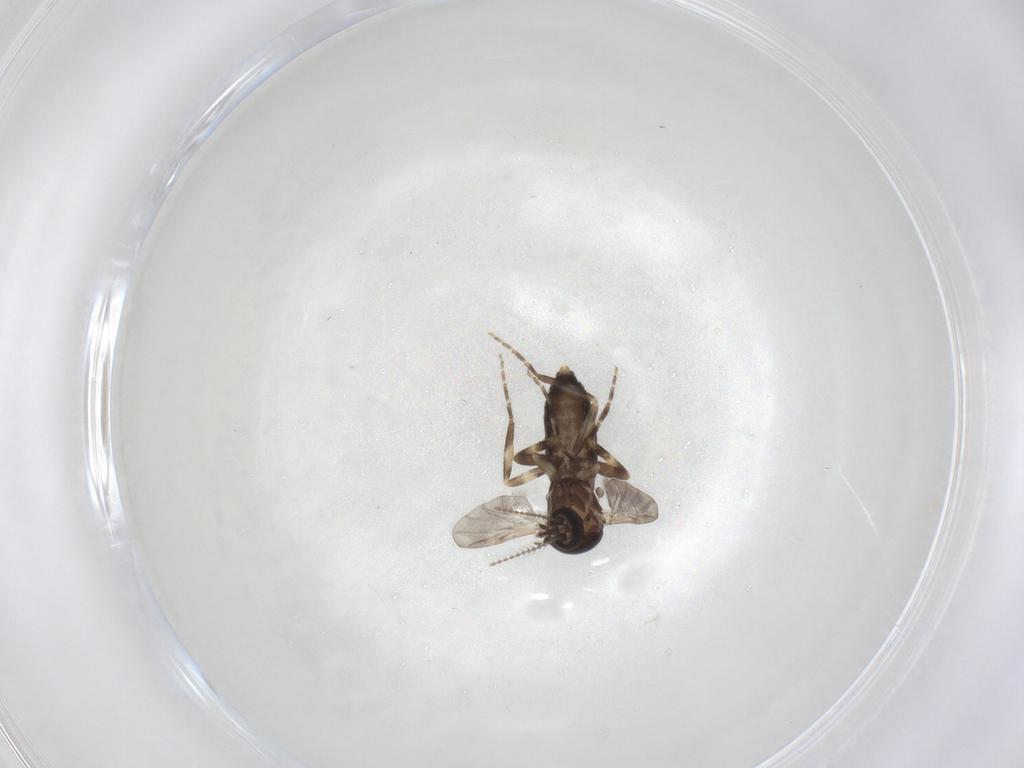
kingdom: Animalia
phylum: Arthropoda
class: Insecta
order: Diptera
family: Ceratopogonidae
